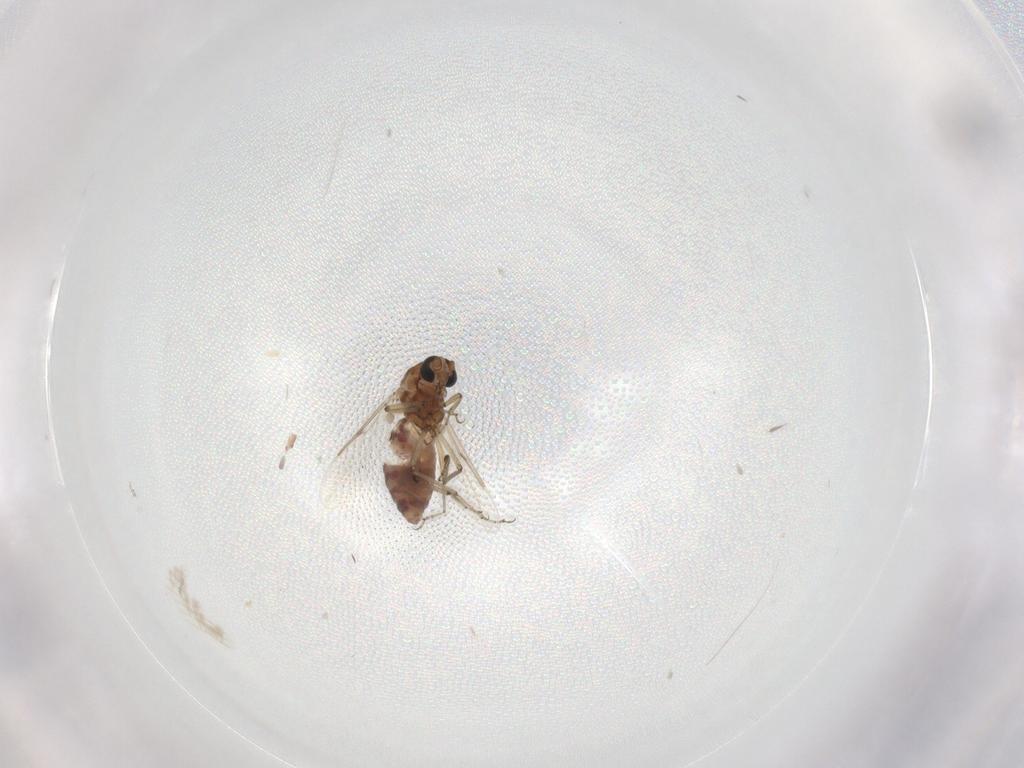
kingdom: Animalia
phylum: Arthropoda
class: Insecta
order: Diptera
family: Ceratopogonidae
